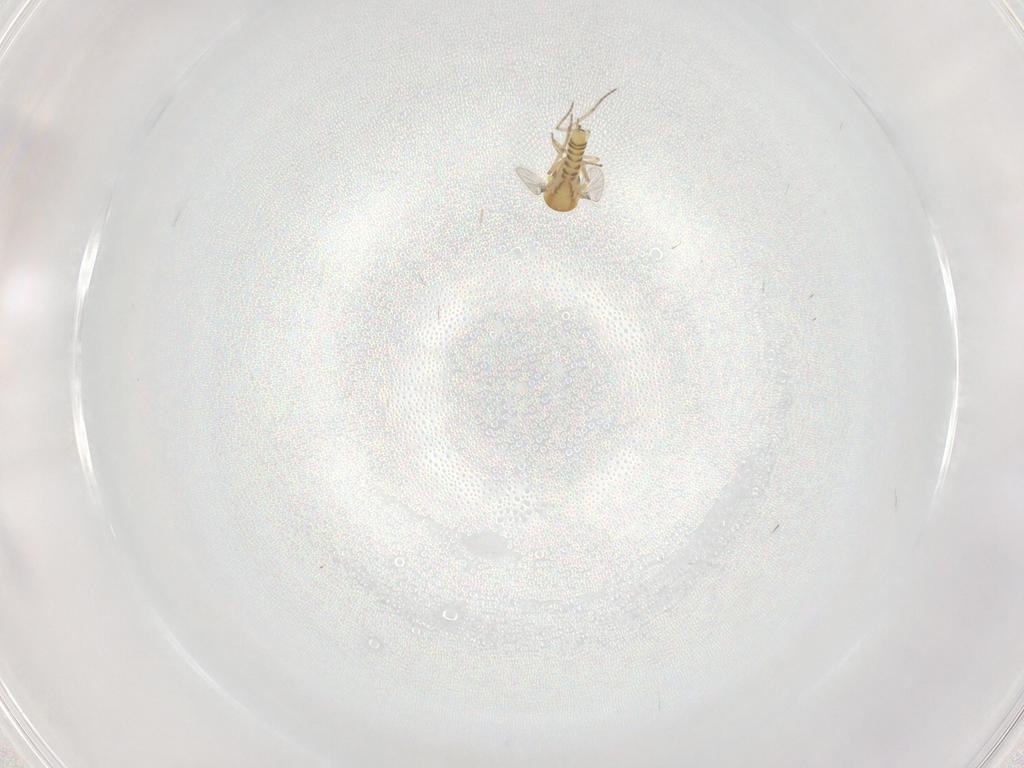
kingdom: Animalia
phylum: Arthropoda
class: Insecta
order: Diptera
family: Ceratopogonidae
